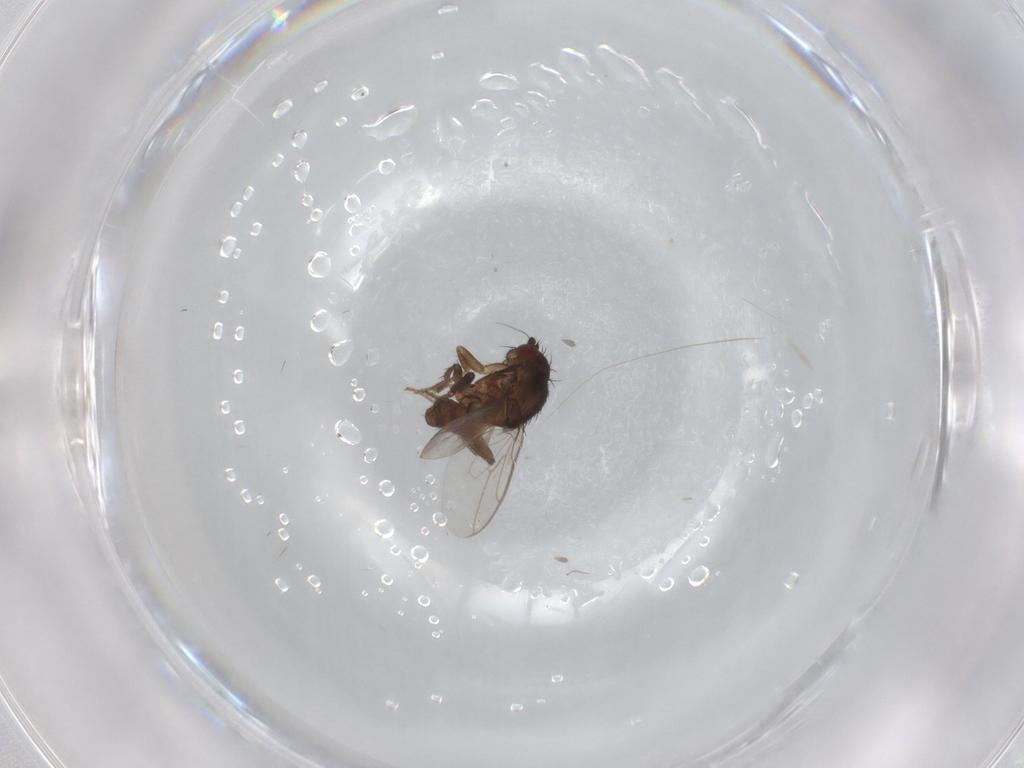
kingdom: Animalia
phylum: Arthropoda
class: Insecta
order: Diptera
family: Sphaeroceridae
